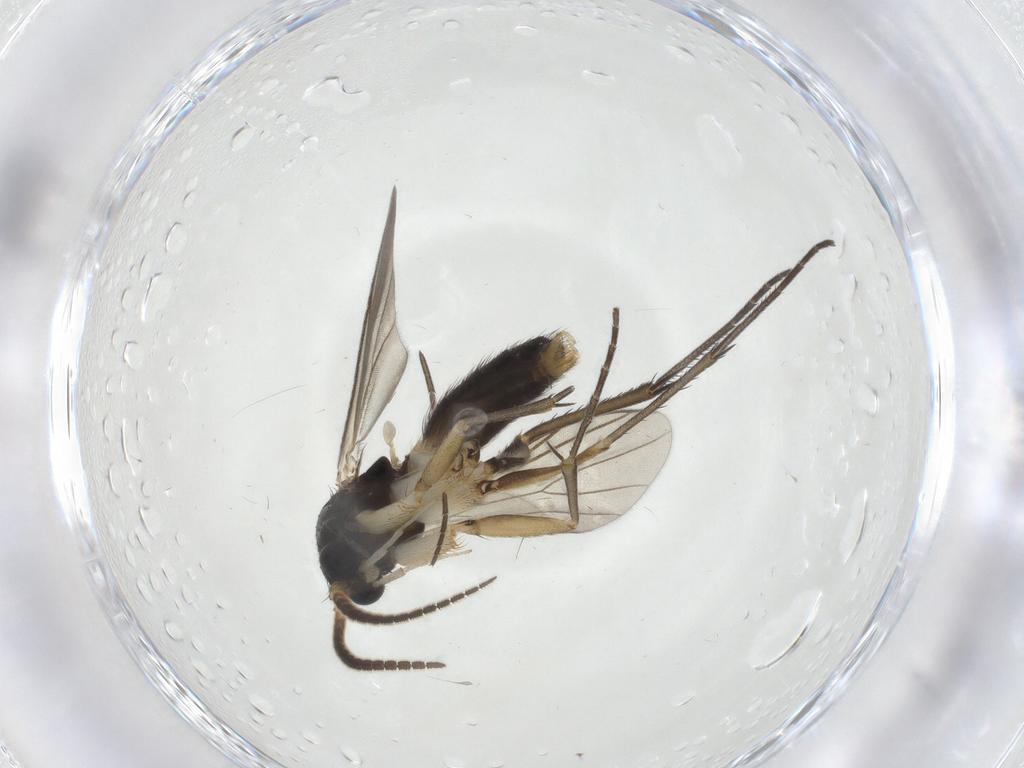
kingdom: Animalia
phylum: Arthropoda
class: Insecta
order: Diptera
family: Mycetophilidae
